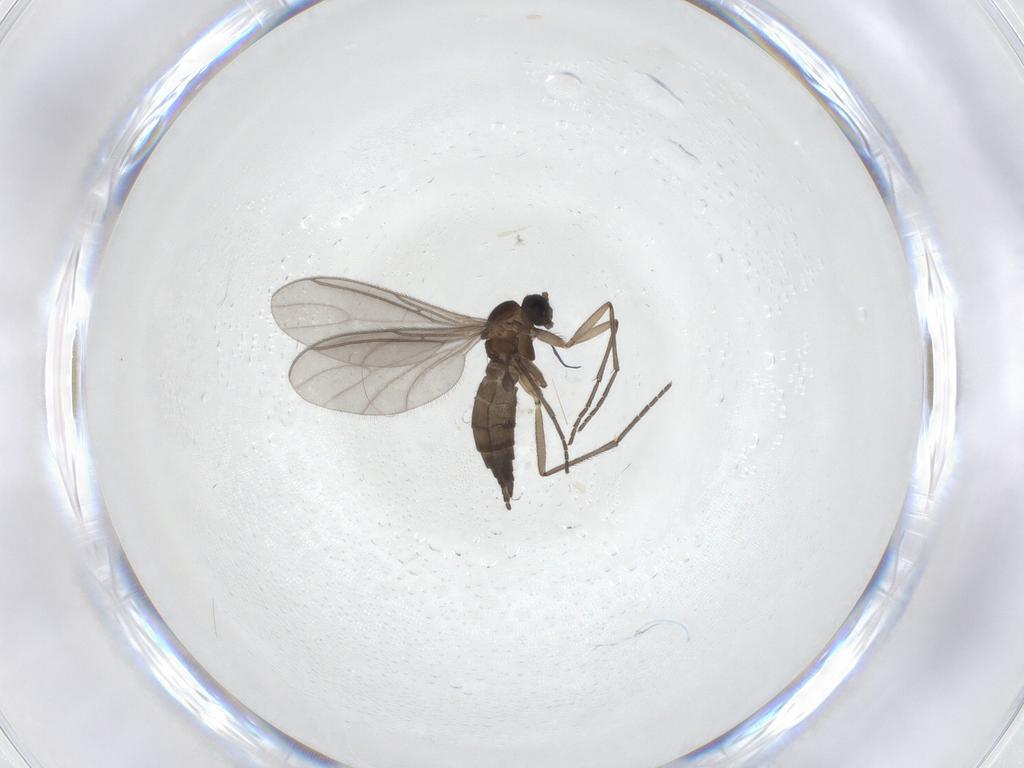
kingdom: Animalia
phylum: Arthropoda
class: Insecta
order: Diptera
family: Sciaridae
